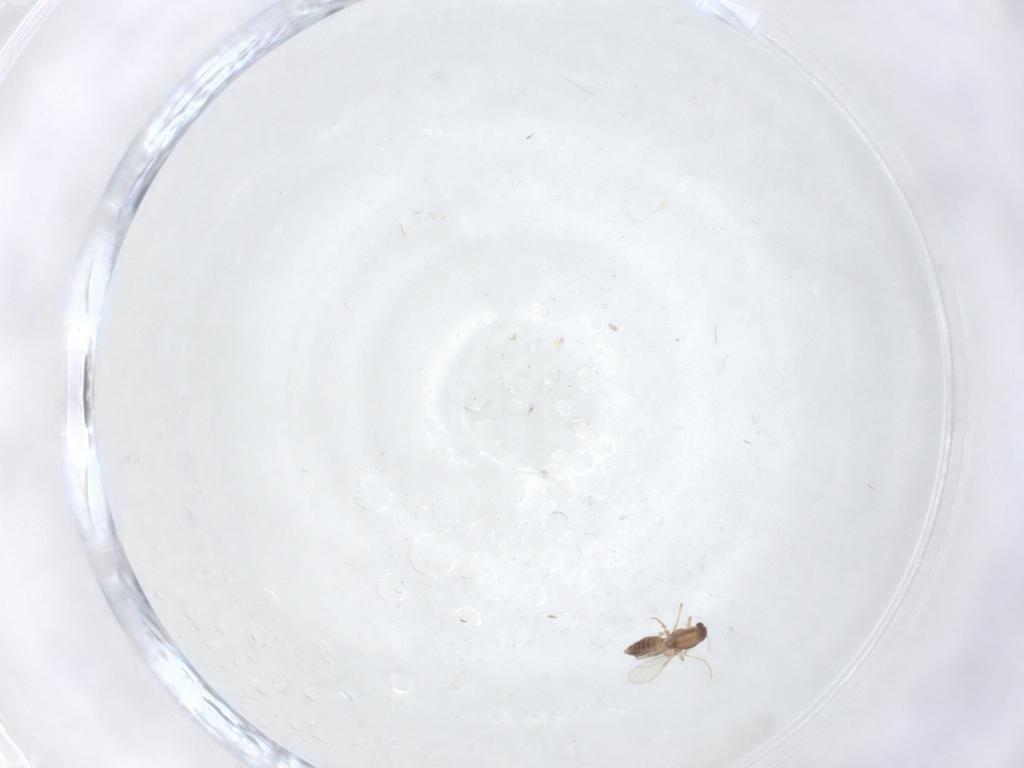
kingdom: Animalia
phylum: Arthropoda
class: Insecta
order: Diptera
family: Chironomidae
